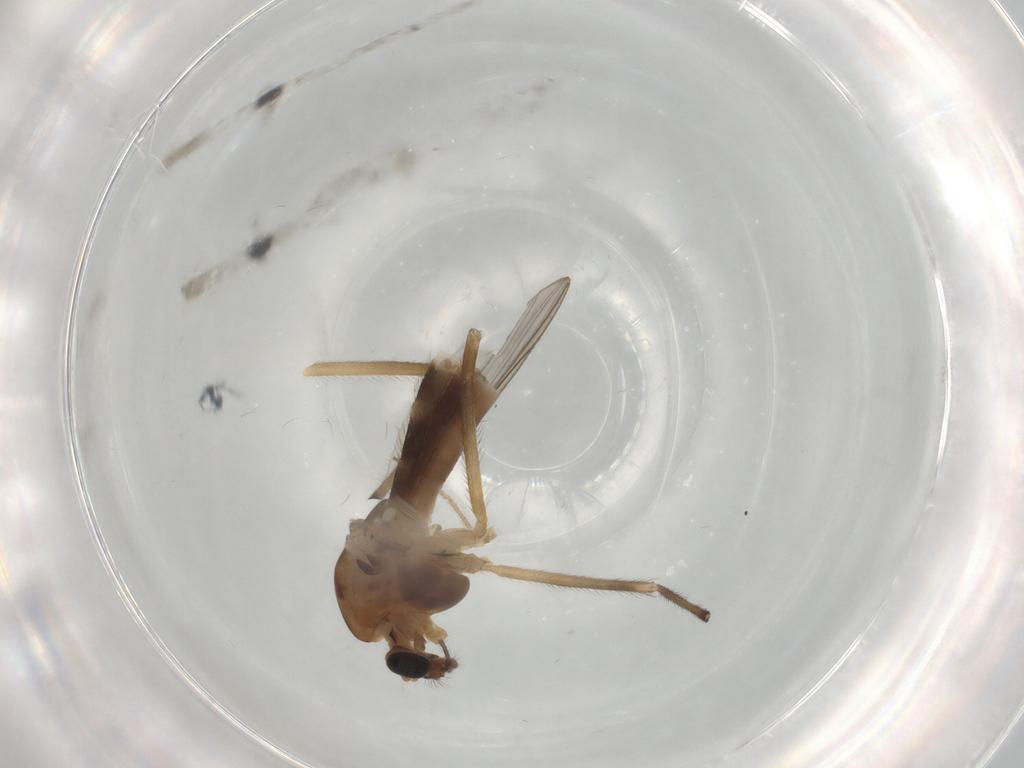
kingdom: Animalia
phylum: Arthropoda
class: Insecta
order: Diptera
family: Chironomidae
